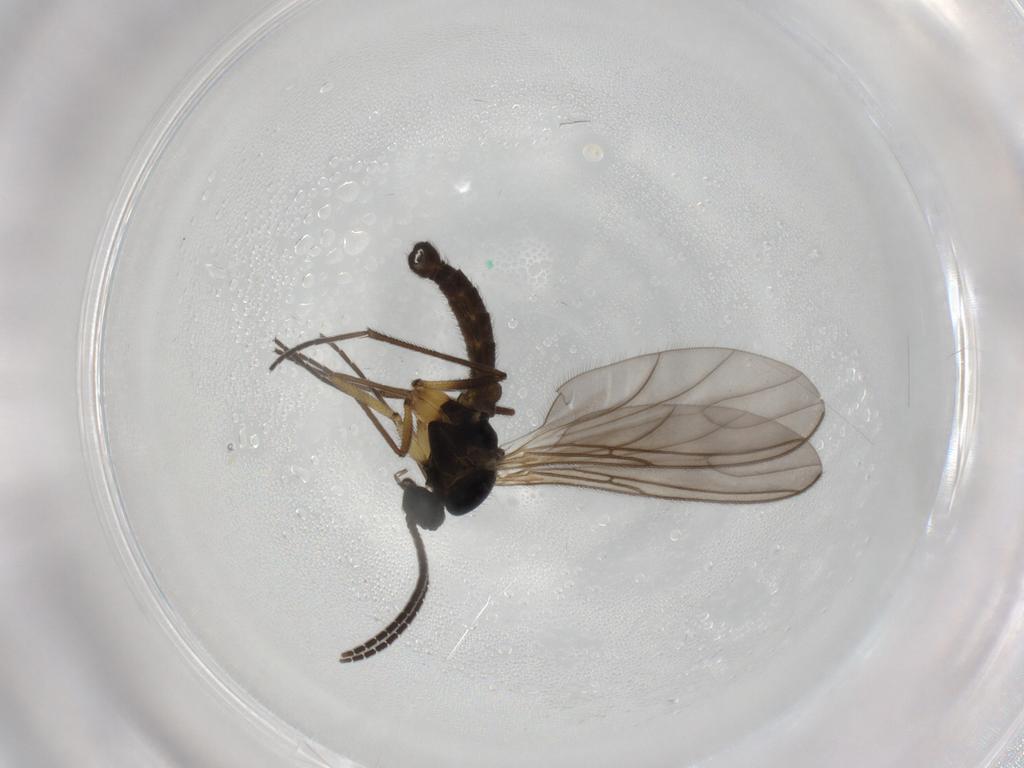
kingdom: Animalia
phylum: Arthropoda
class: Insecta
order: Diptera
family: Sciaridae
